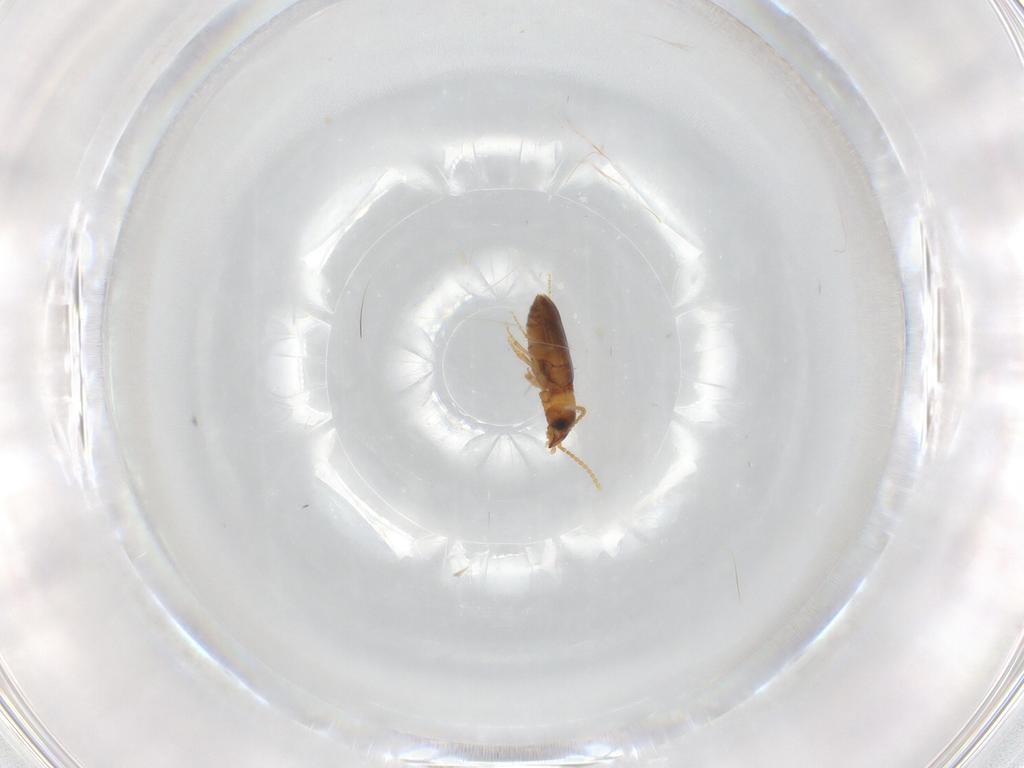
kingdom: Animalia
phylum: Arthropoda
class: Insecta
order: Coleoptera
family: Carabidae
